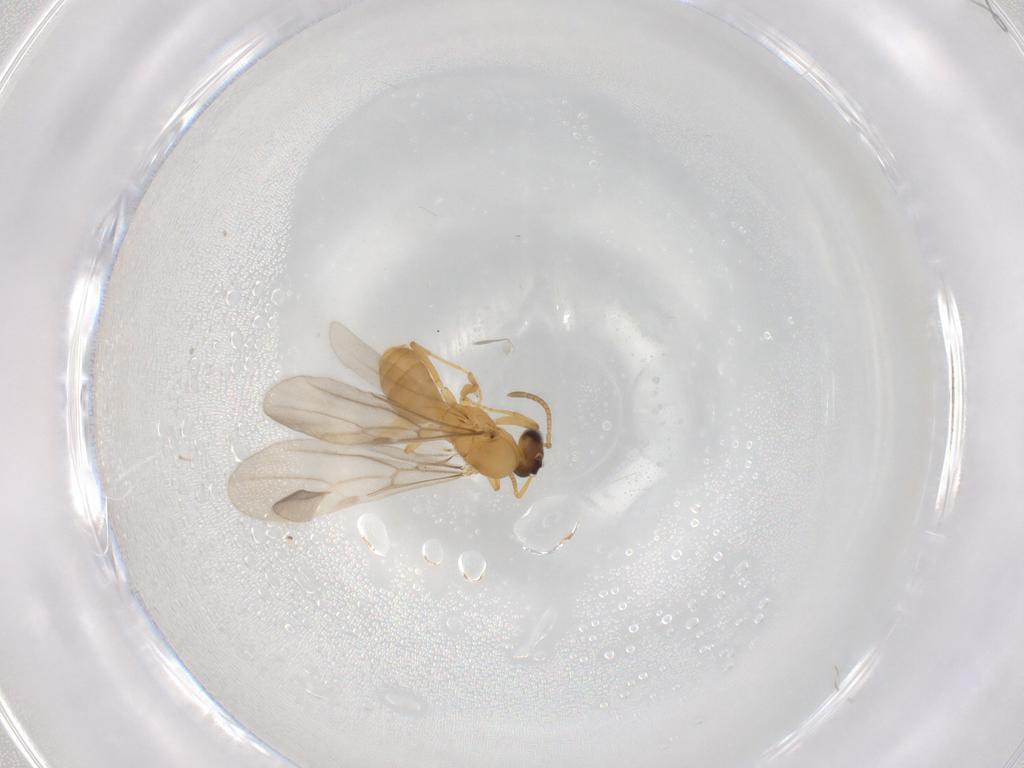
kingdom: Animalia
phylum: Arthropoda
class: Insecta
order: Hymenoptera
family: Formicidae
